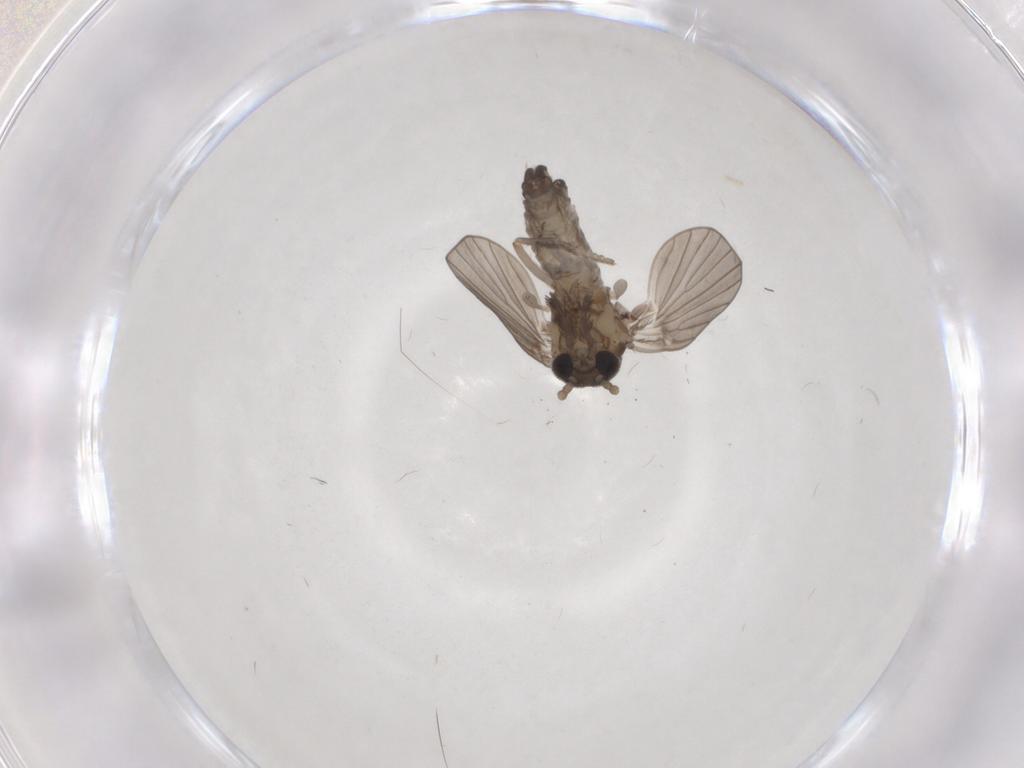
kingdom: Animalia
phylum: Arthropoda
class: Insecta
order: Diptera
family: Psychodidae
